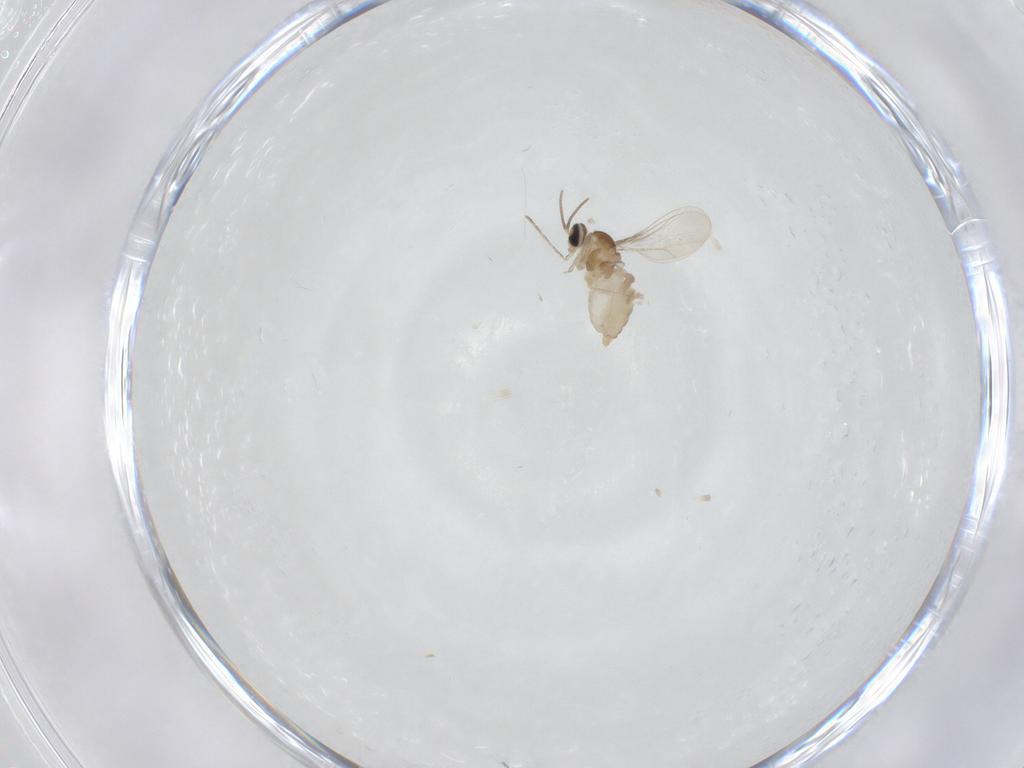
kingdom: Animalia
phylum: Arthropoda
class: Insecta
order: Diptera
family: Cecidomyiidae
